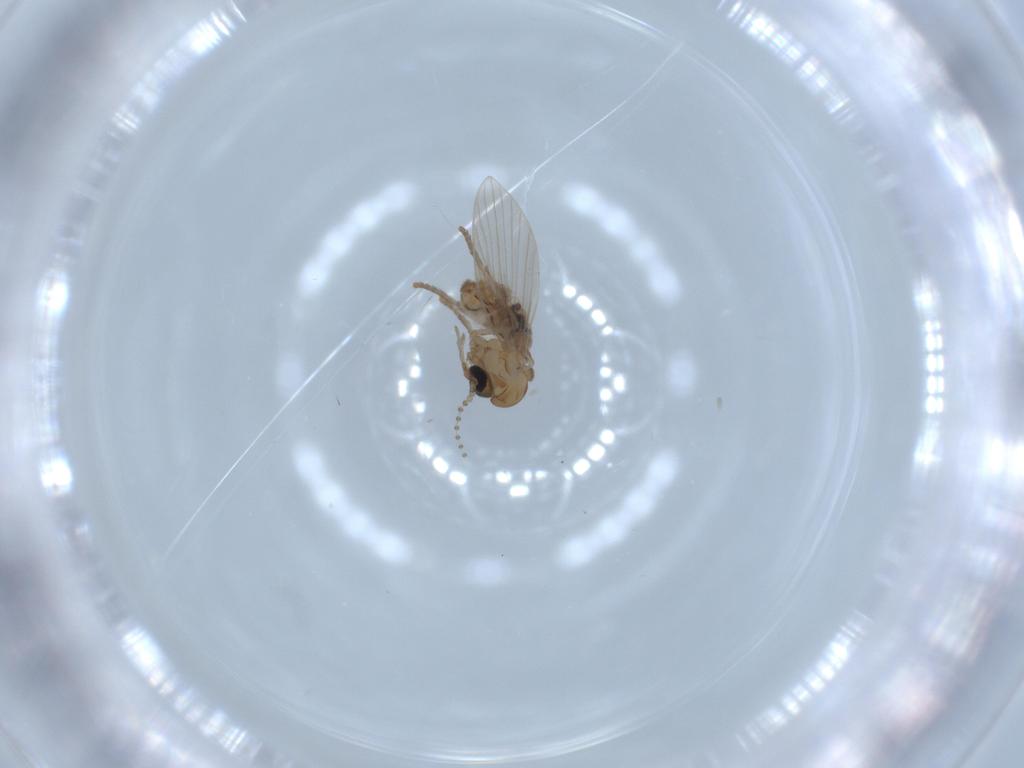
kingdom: Animalia
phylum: Arthropoda
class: Insecta
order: Diptera
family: Psychodidae
